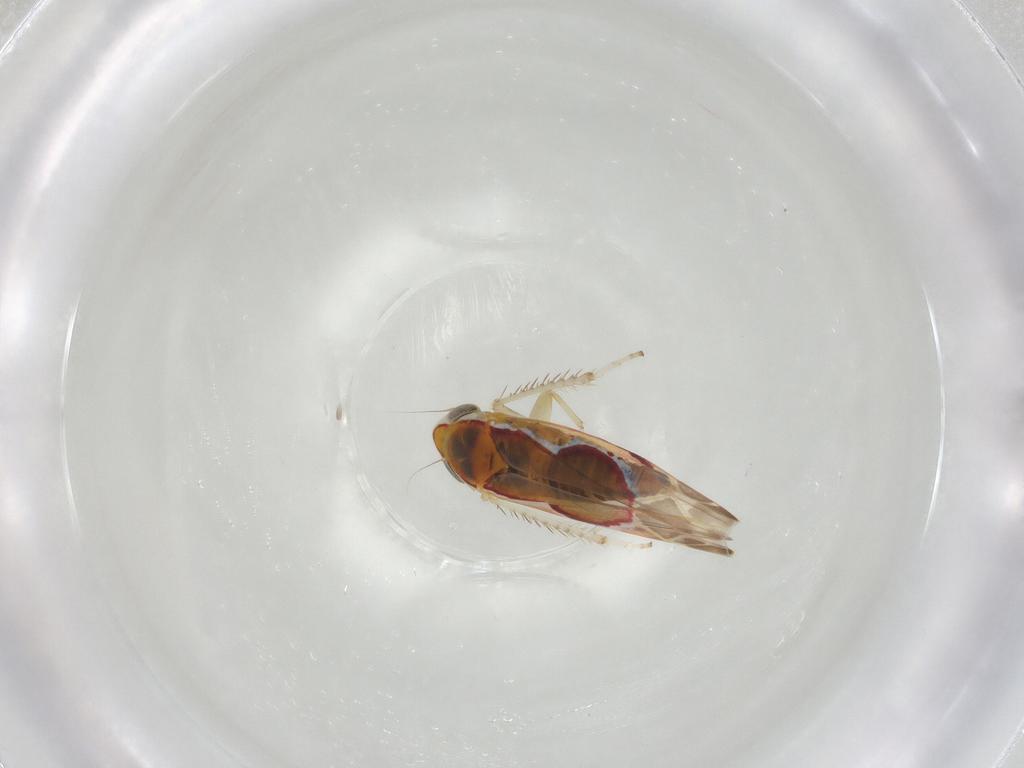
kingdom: Animalia
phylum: Arthropoda
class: Insecta
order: Hemiptera
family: Cicadellidae
